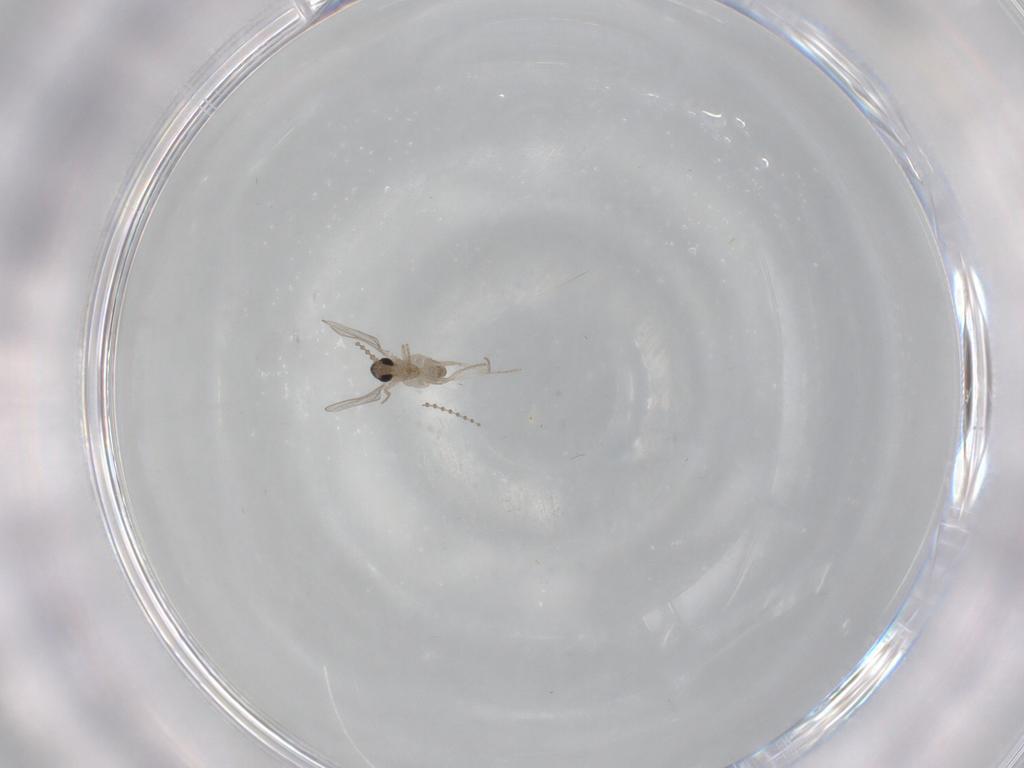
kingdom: Animalia
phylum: Arthropoda
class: Insecta
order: Diptera
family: Cecidomyiidae
